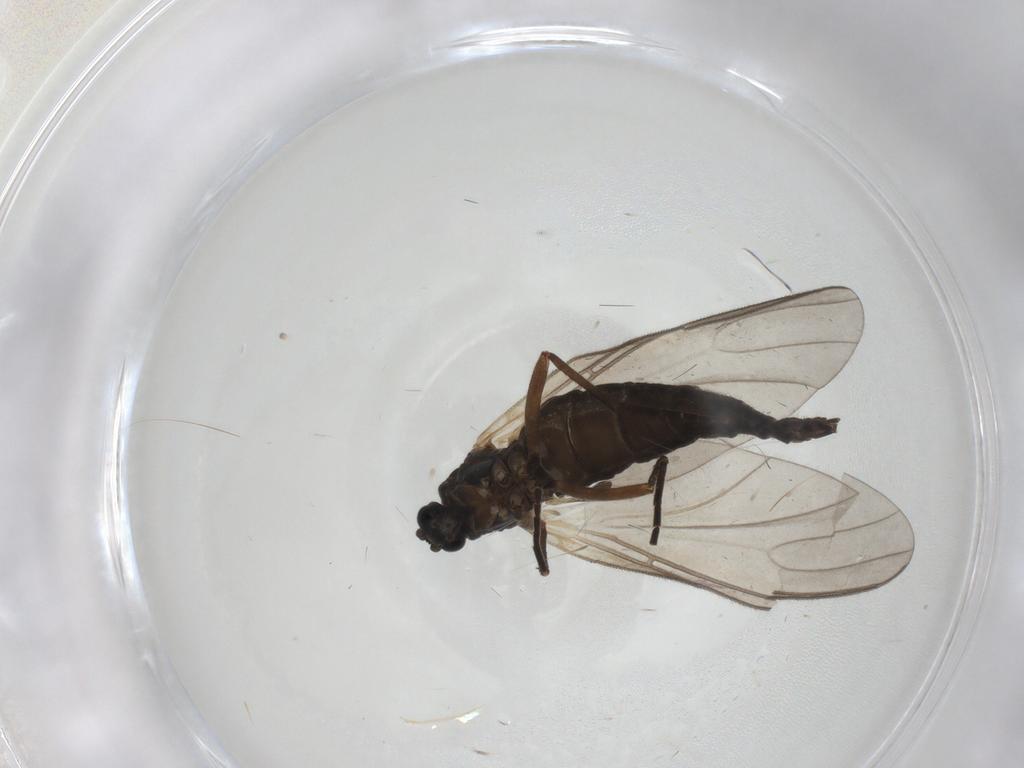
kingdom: Animalia
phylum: Arthropoda
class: Insecta
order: Diptera
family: Sciaridae
